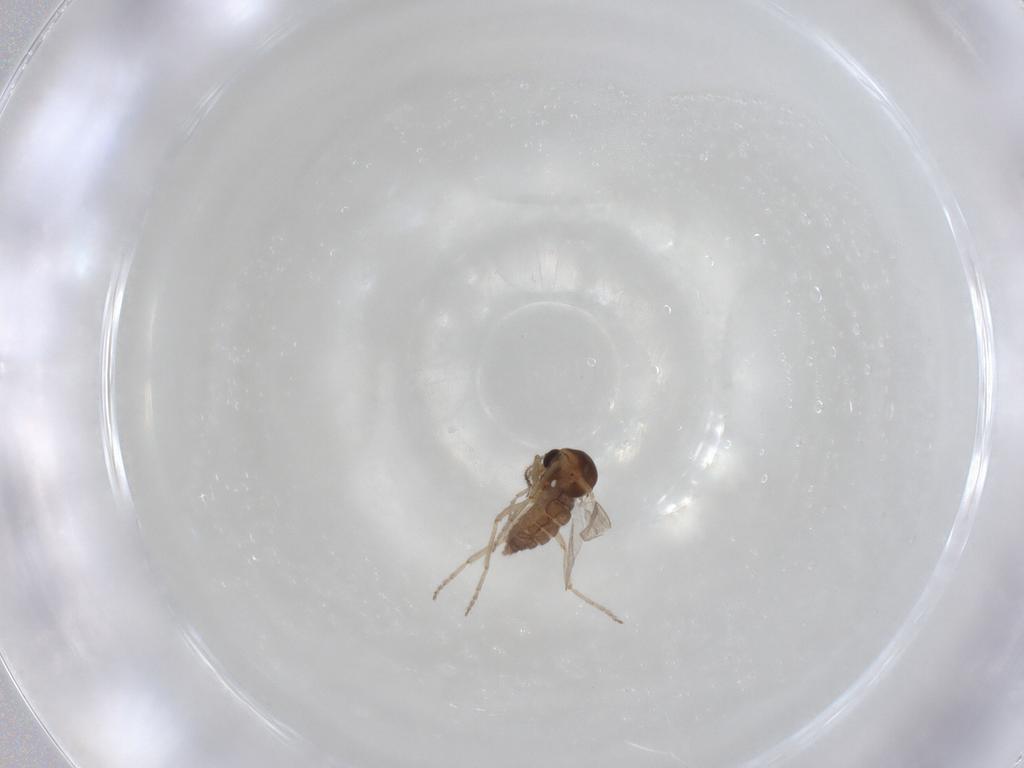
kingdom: Animalia
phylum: Arthropoda
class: Insecta
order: Diptera
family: Ceratopogonidae
